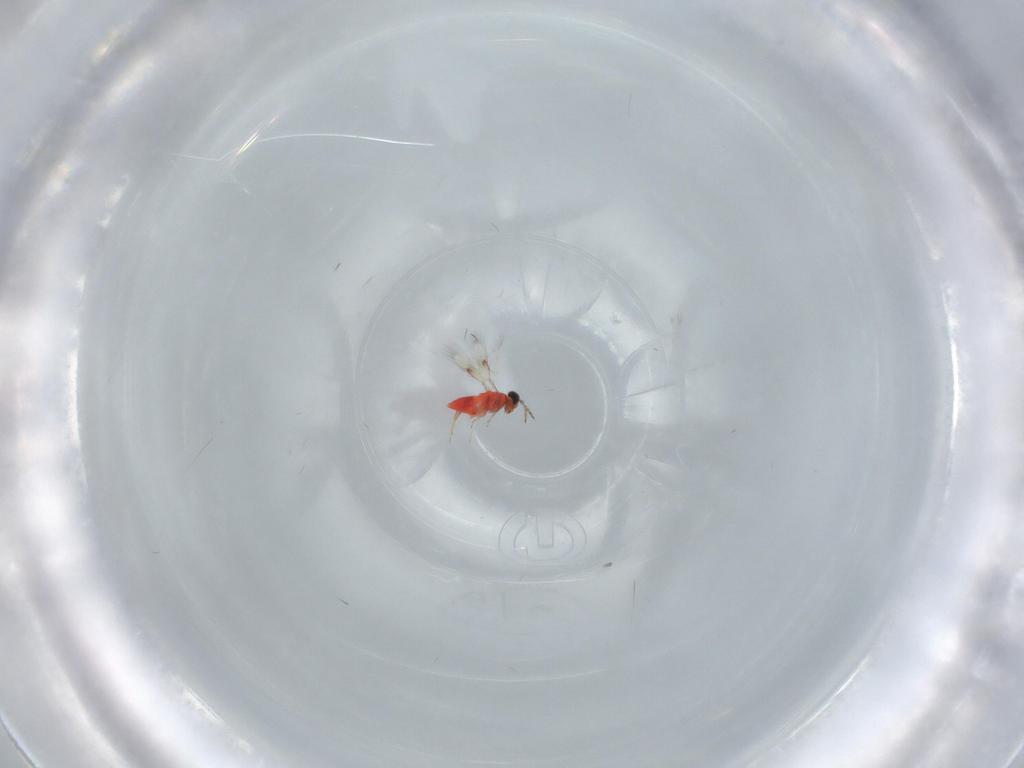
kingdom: Animalia
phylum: Arthropoda
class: Insecta
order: Hymenoptera
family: Trichogrammatidae
